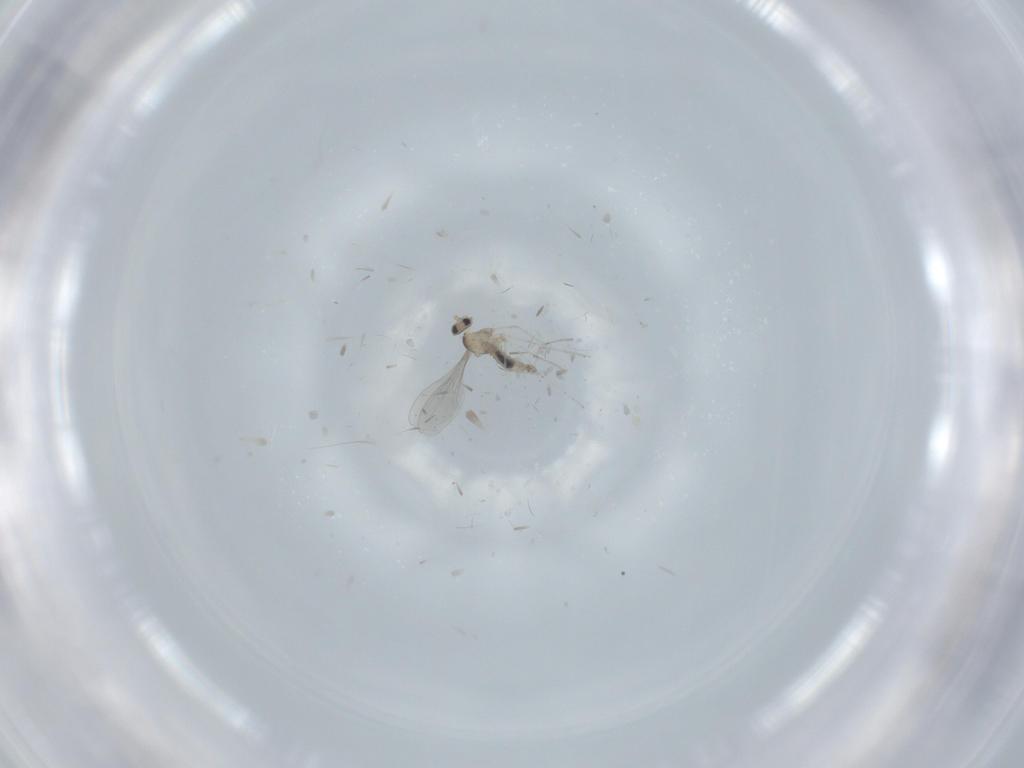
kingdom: Animalia
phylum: Arthropoda
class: Insecta
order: Diptera
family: Cecidomyiidae
